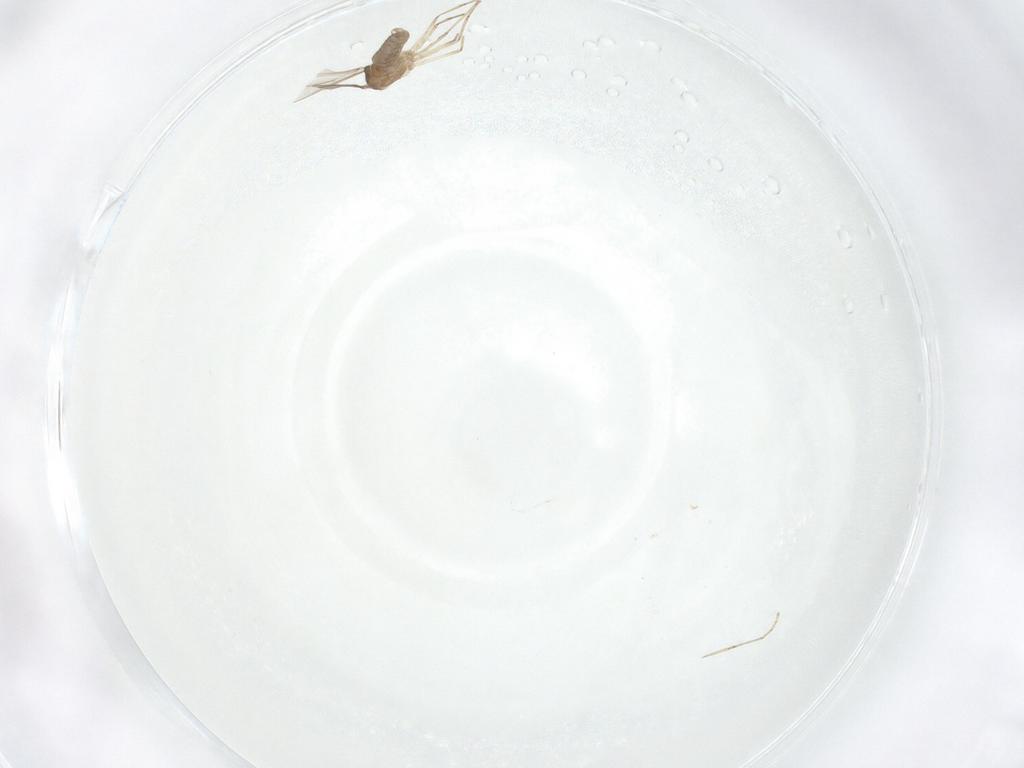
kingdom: Animalia
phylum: Arthropoda
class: Insecta
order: Diptera
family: Cecidomyiidae
